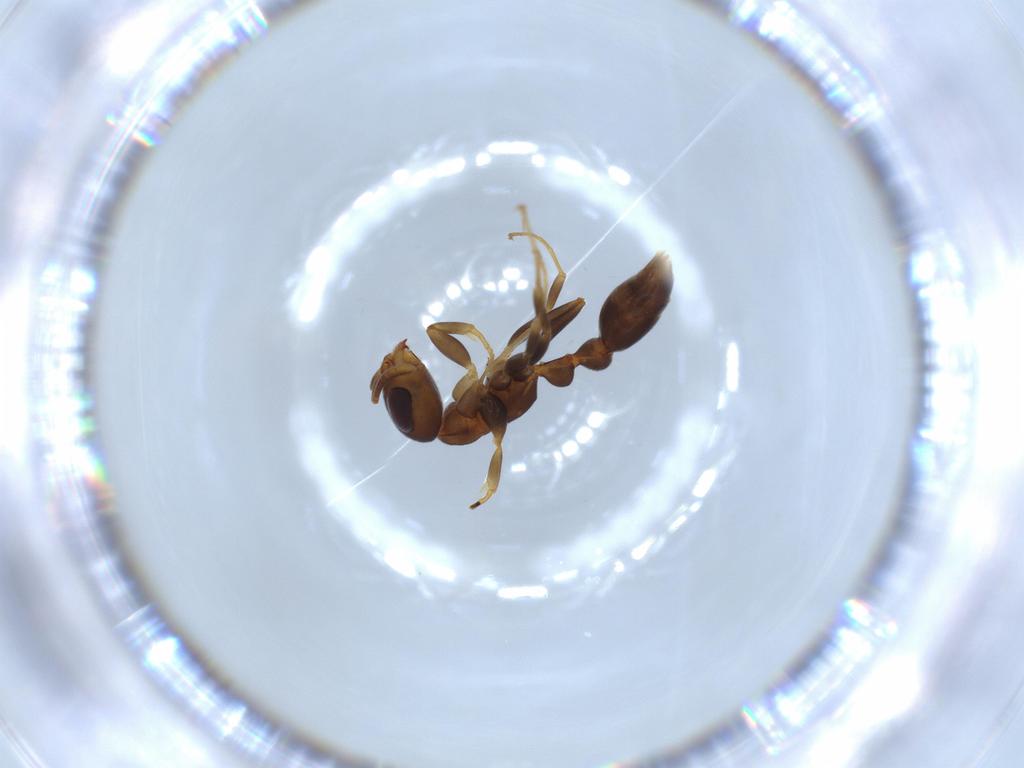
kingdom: Animalia
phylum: Arthropoda
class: Insecta
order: Hymenoptera
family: Formicidae
